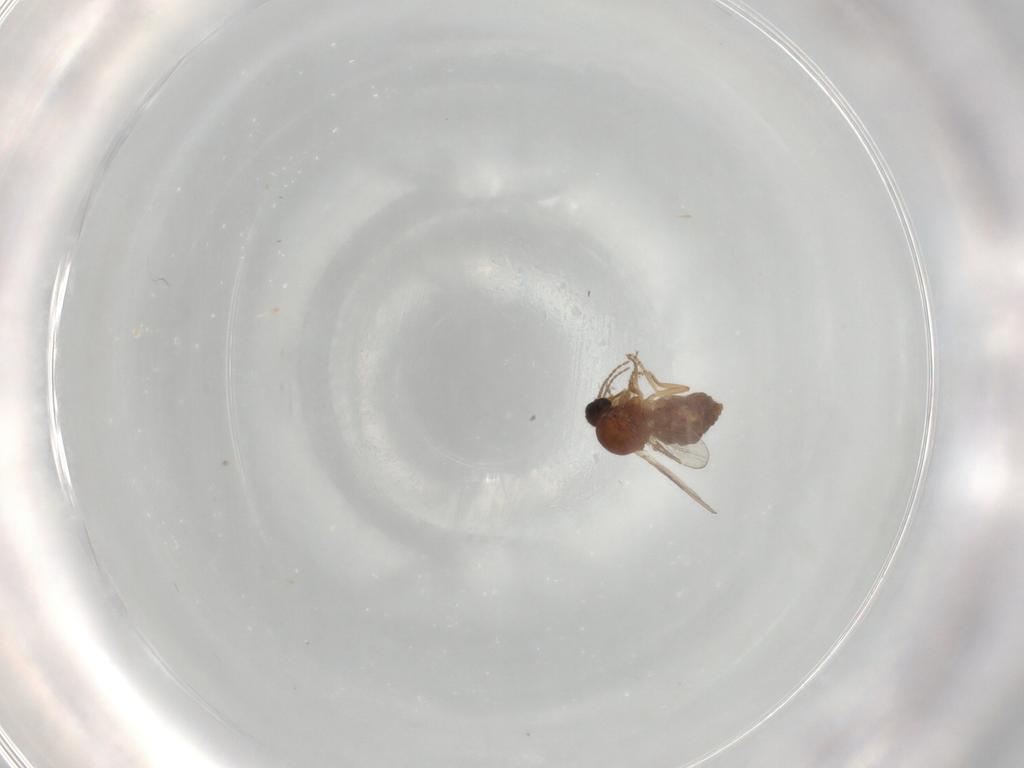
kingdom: Animalia
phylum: Arthropoda
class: Insecta
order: Diptera
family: Ceratopogonidae
